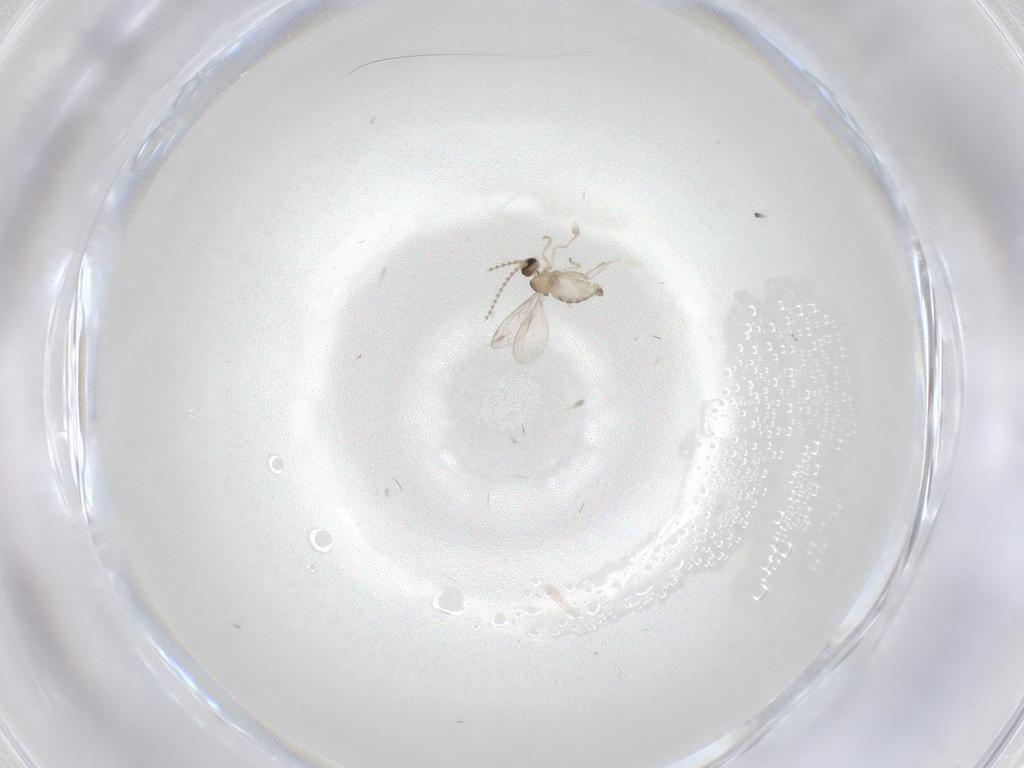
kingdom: Animalia
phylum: Arthropoda
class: Insecta
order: Diptera
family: Cecidomyiidae
